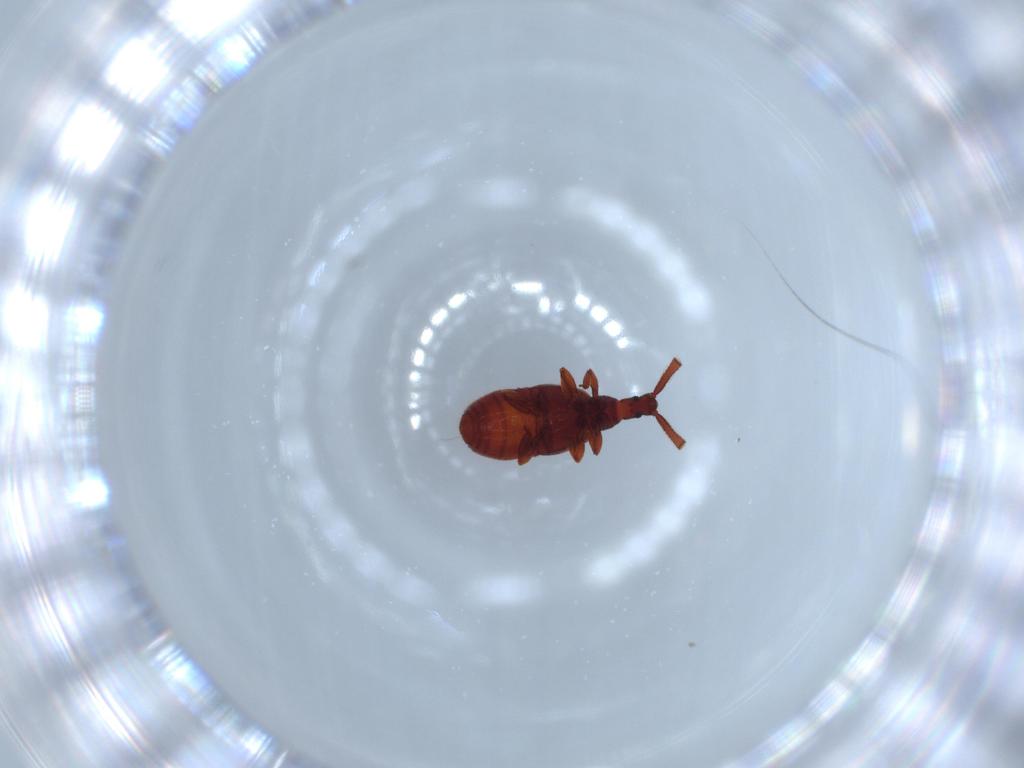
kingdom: Animalia
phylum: Arthropoda
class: Insecta
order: Coleoptera
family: Staphylinidae
